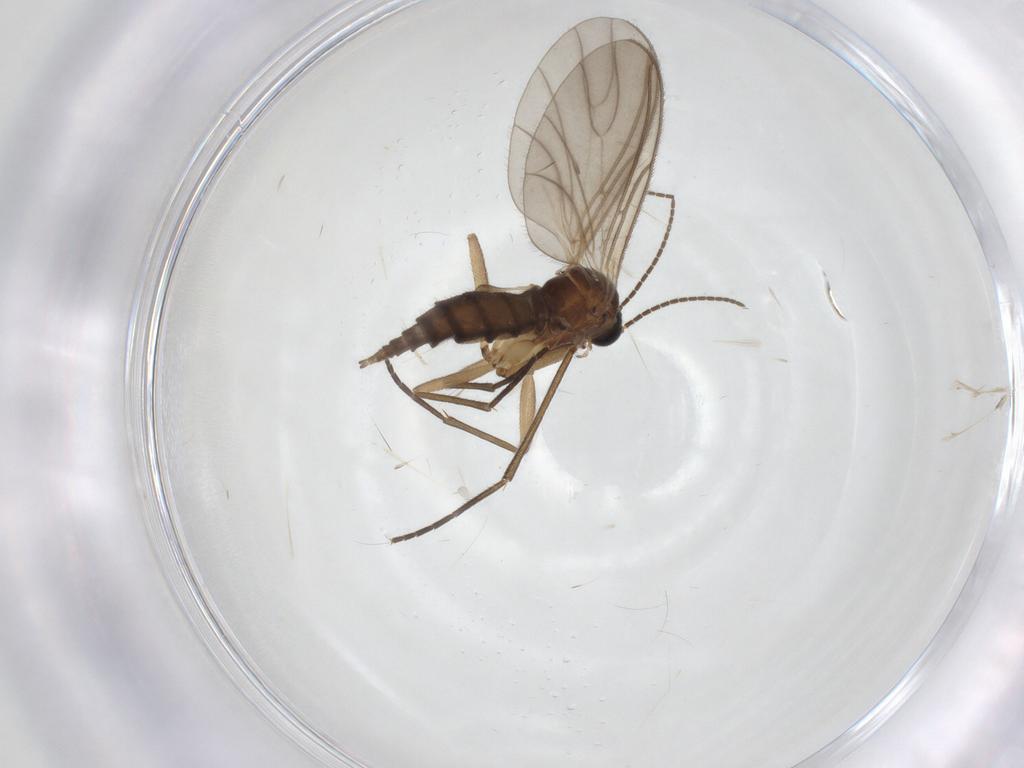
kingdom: Animalia
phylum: Arthropoda
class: Insecta
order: Diptera
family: Sciaridae
